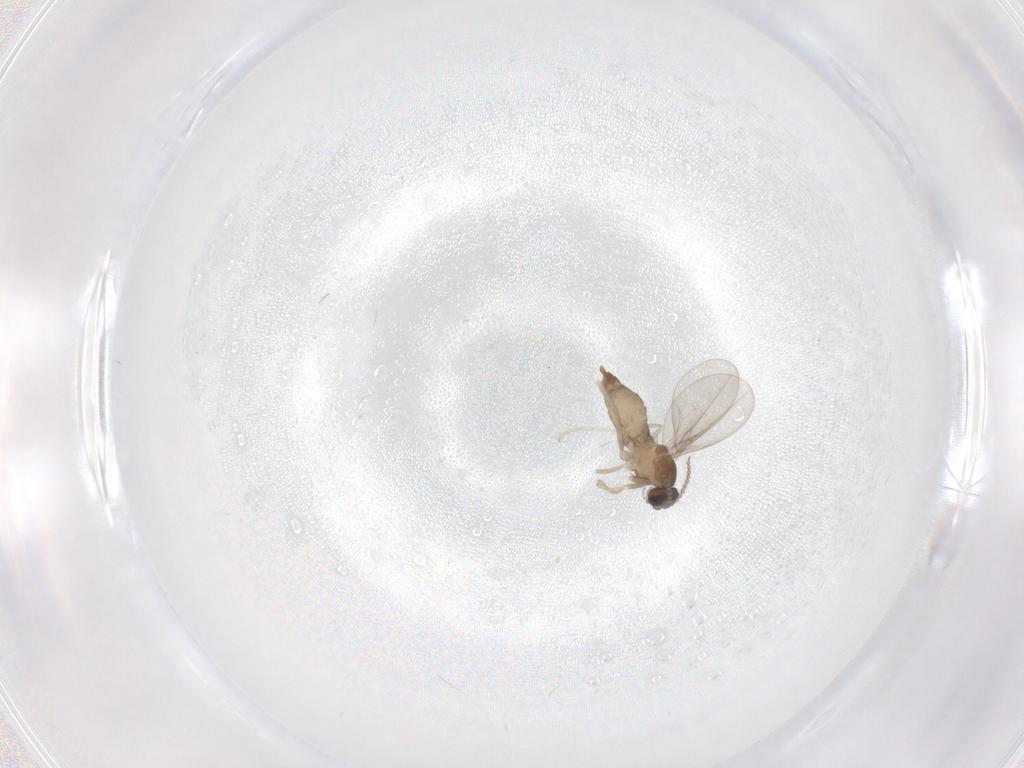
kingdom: Animalia
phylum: Arthropoda
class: Insecta
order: Diptera
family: Cecidomyiidae
